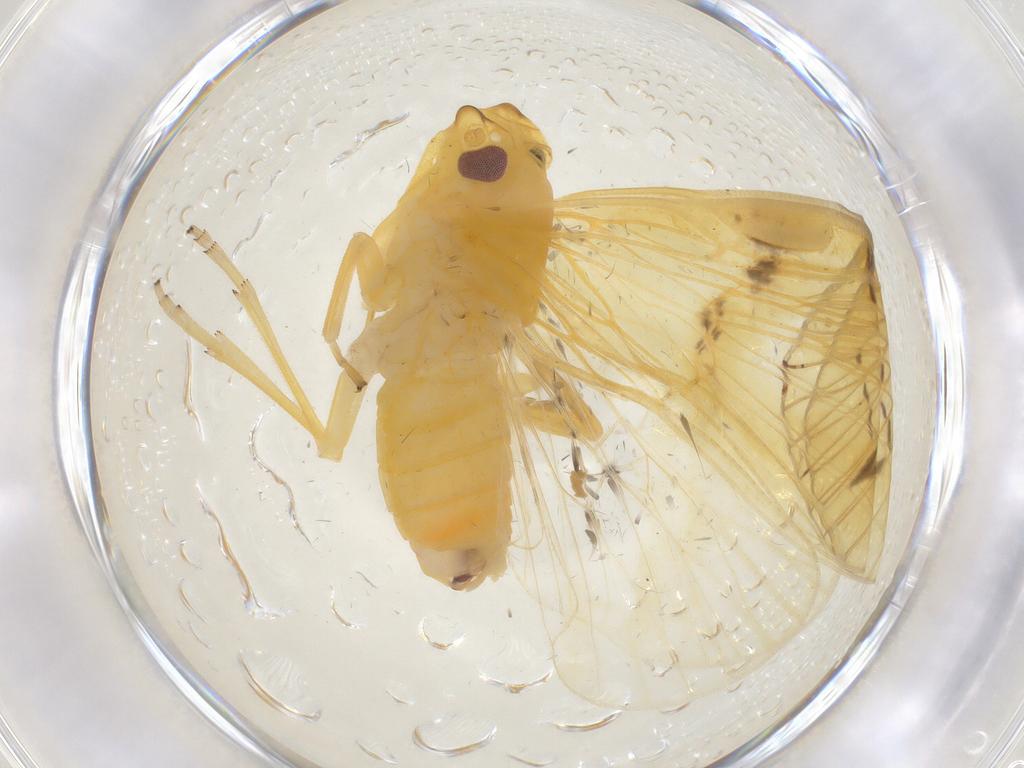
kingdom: Animalia
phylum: Arthropoda
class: Insecta
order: Hemiptera
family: Cixiidae
